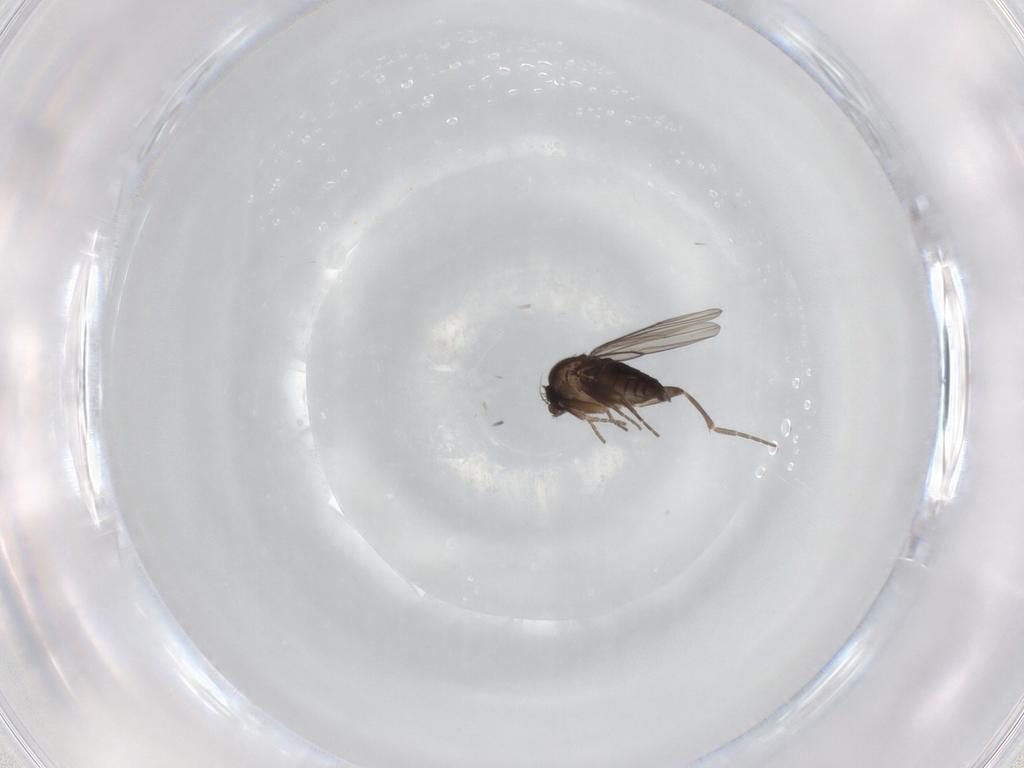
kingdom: Animalia
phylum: Arthropoda
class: Insecta
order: Diptera
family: Phoridae
